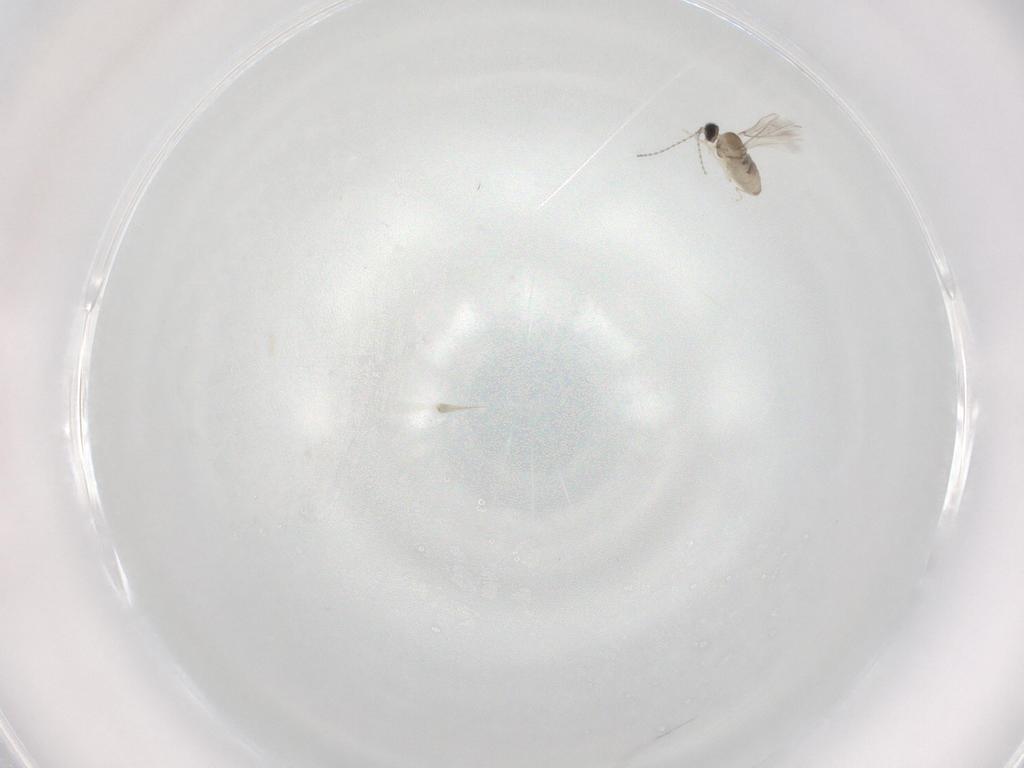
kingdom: Animalia
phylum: Arthropoda
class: Insecta
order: Diptera
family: Cecidomyiidae
